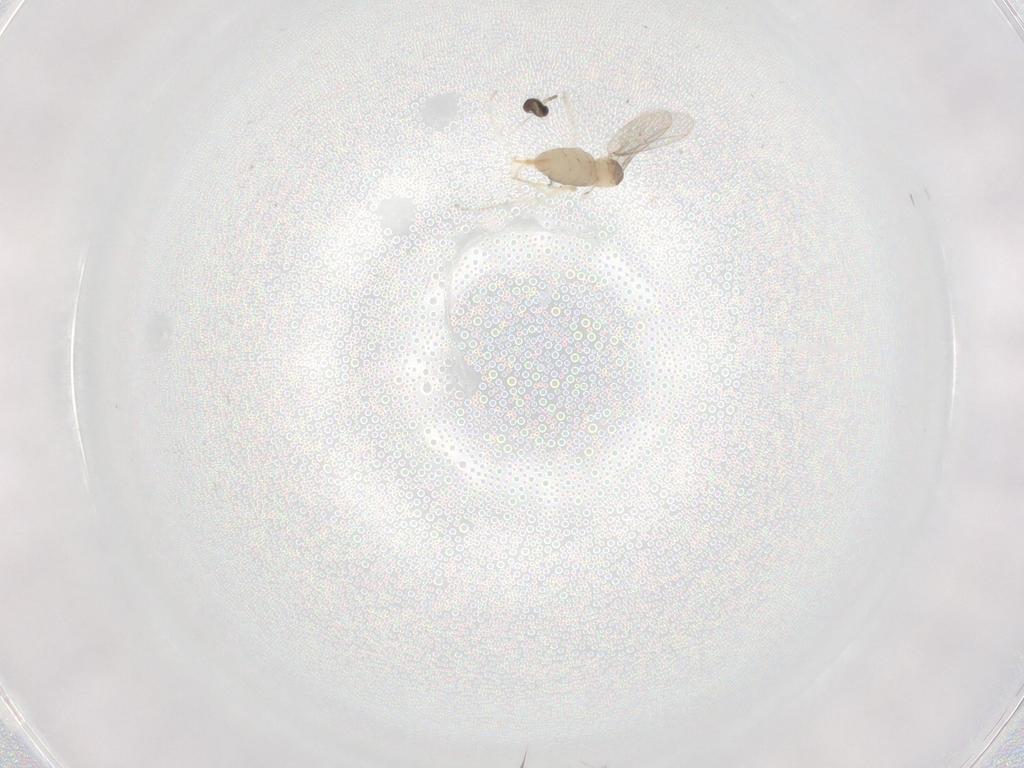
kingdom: Animalia
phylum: Arthropoda
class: Insecta
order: Diptera
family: Cecidomyiidae
